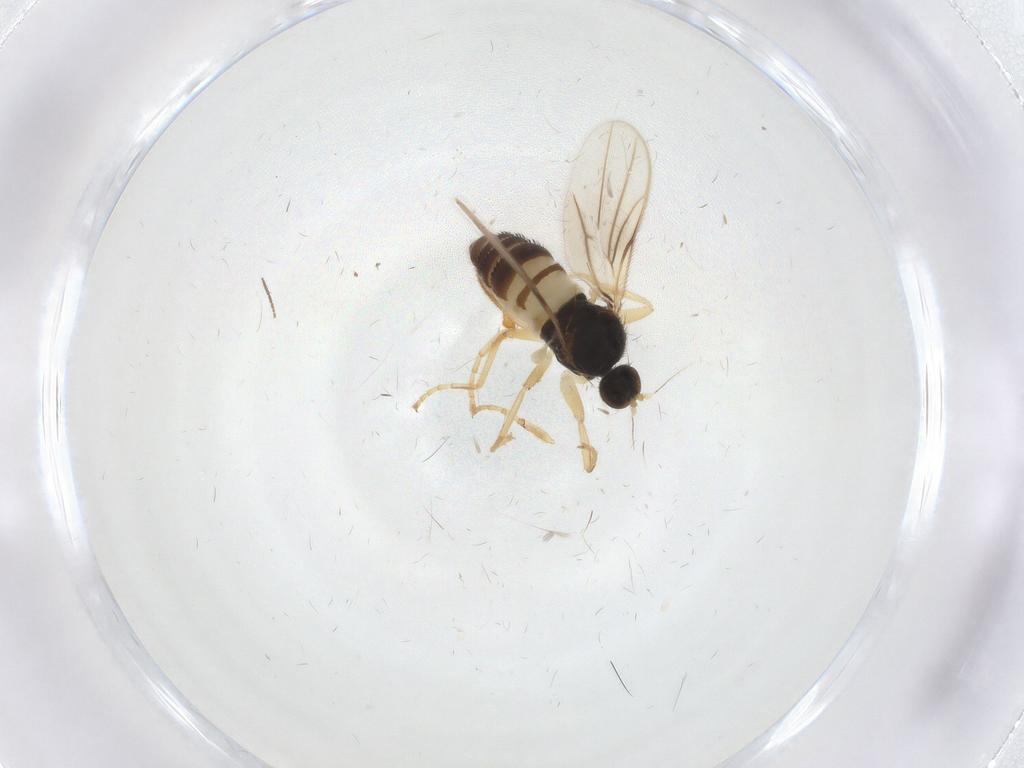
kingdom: Animalia
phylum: Arthropoda
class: Insecta
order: Diptera
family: Hybotidae
